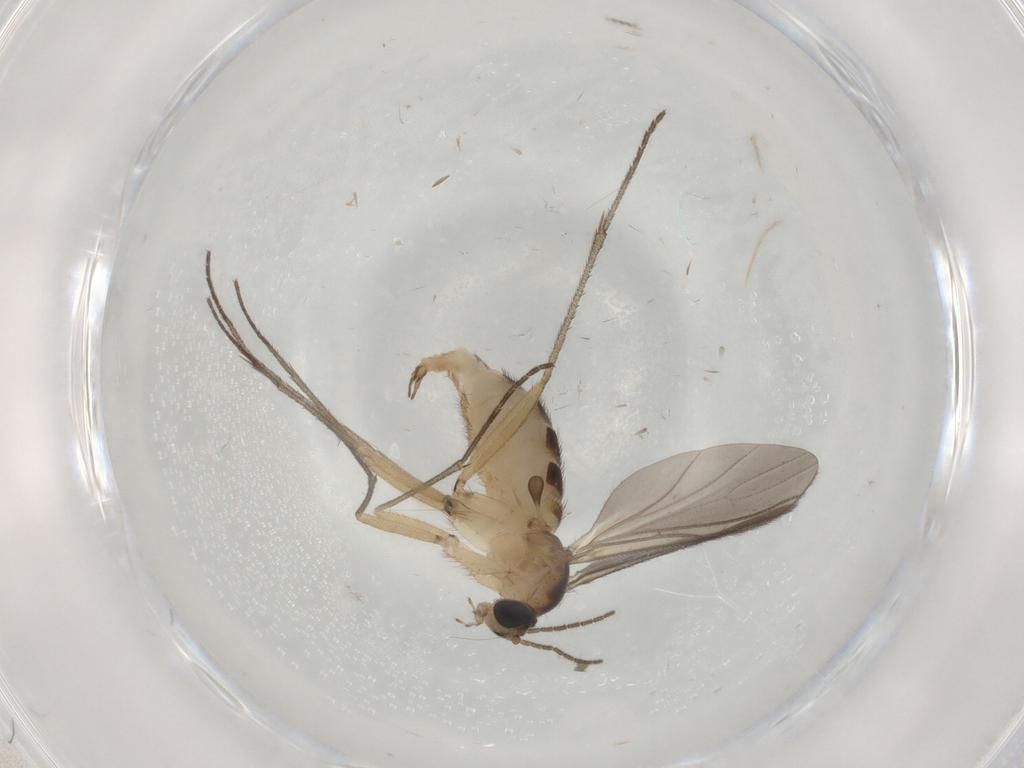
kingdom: Animalia
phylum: Arthropoda
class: Insecta
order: Diptera
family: Sciaridae
